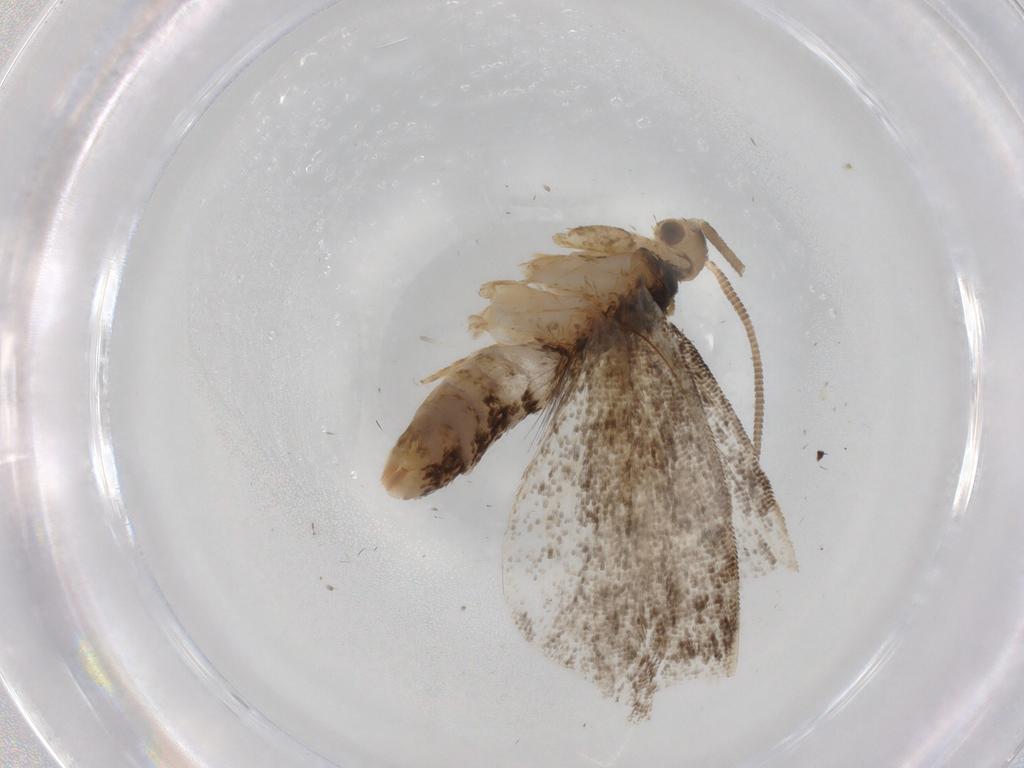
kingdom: Animalia
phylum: Arthropoda
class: Insecta
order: Lepidoptera
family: Dryadaulidae
